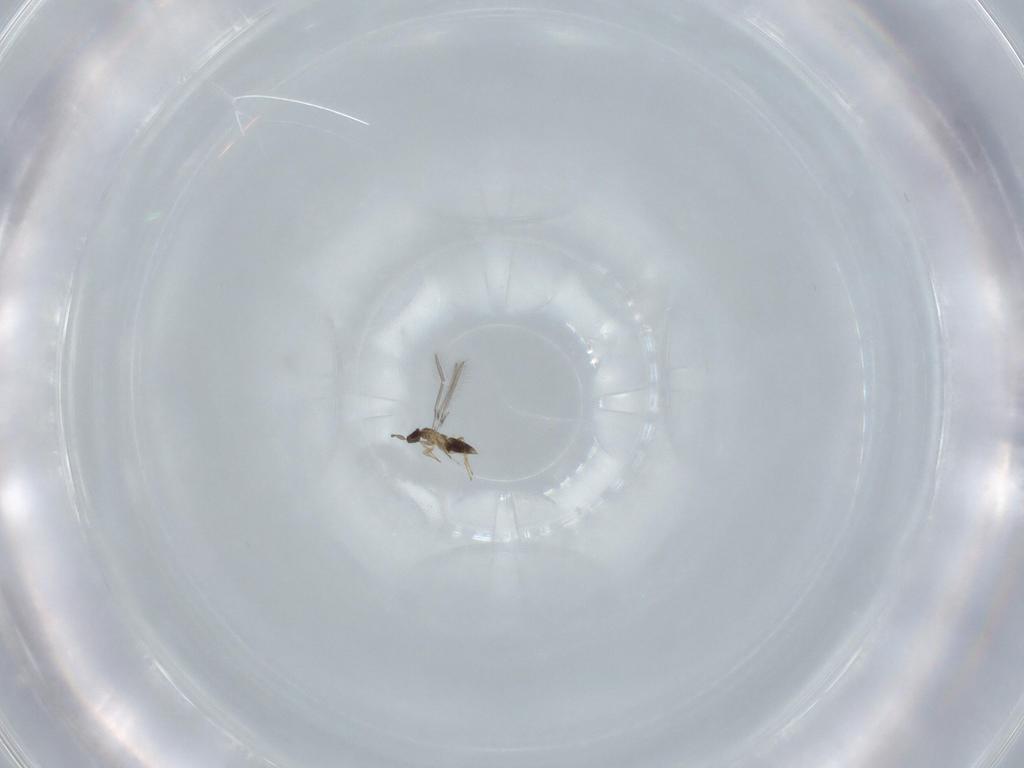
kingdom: Animalia
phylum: Arthropoda
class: Insecta
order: Hymenoptera
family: Mymaridae
